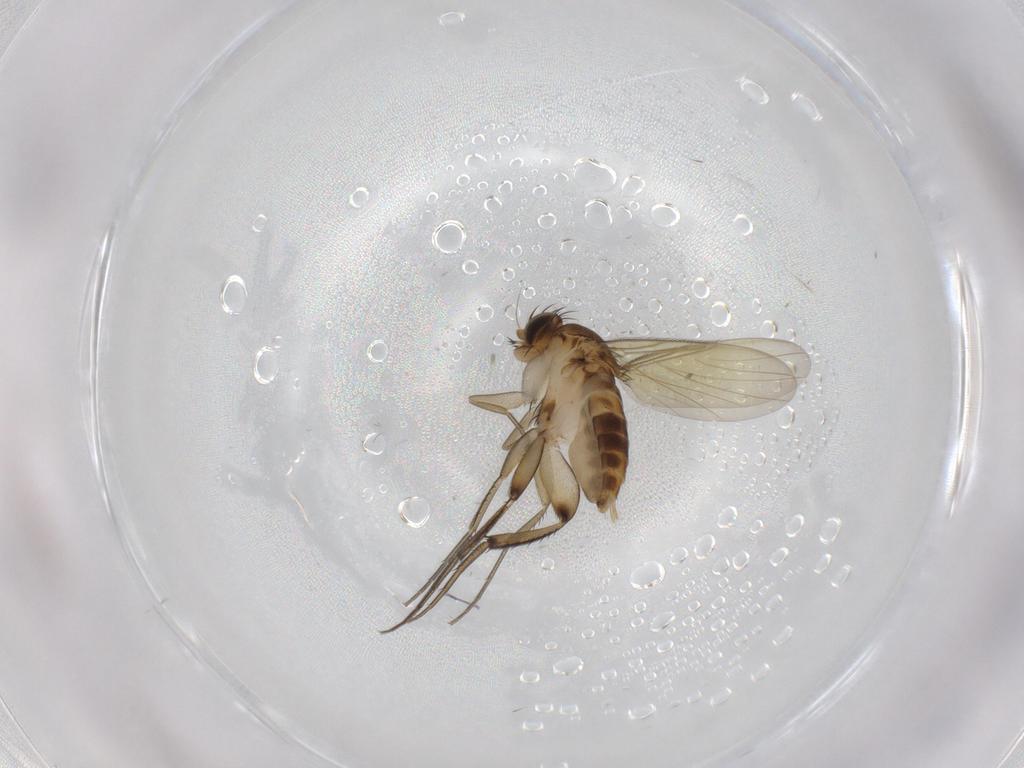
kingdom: Animalia
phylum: Arthropoda
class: Insecta
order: Diptera
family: Phoridae
